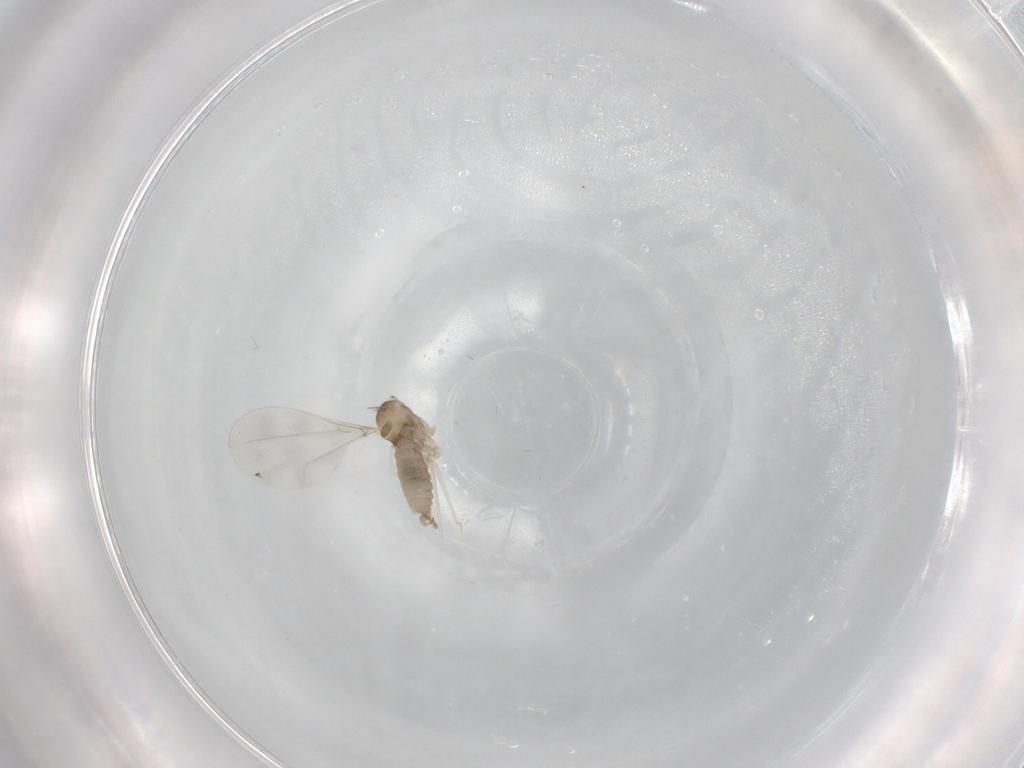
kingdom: Animalia
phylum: Arthropoda
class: Insecta
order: Diptera
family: Cecidomyiidae
